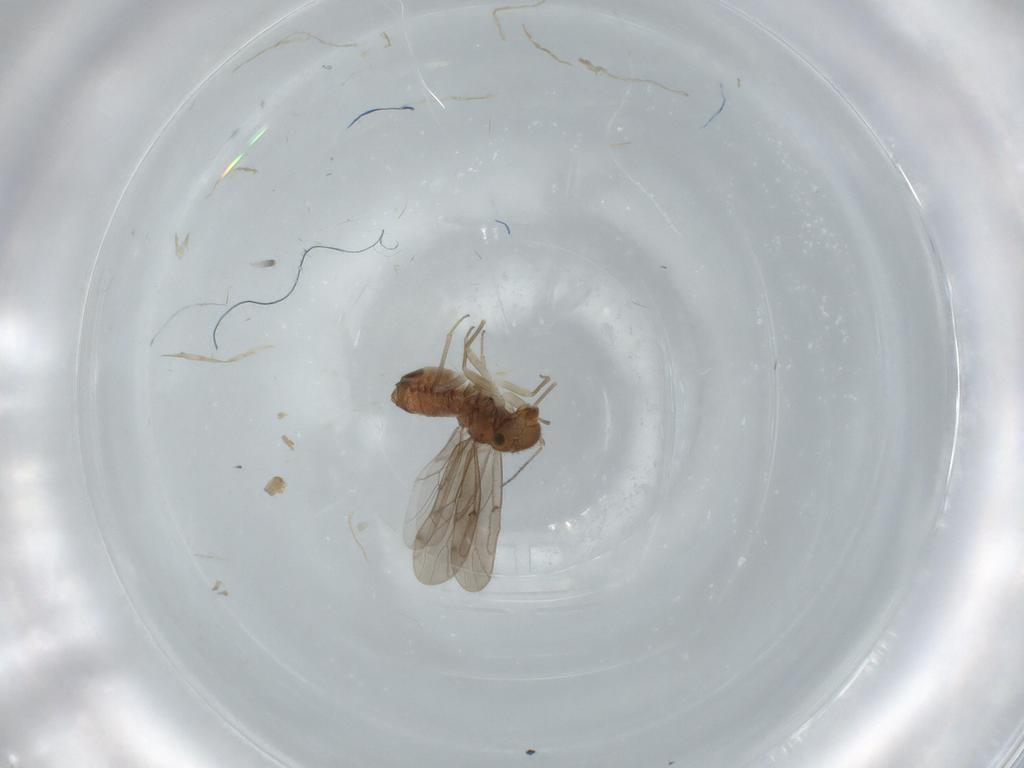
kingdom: Animalia
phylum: Arthropoda
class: Insecta
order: Psocodea
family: Ectopsocidae
